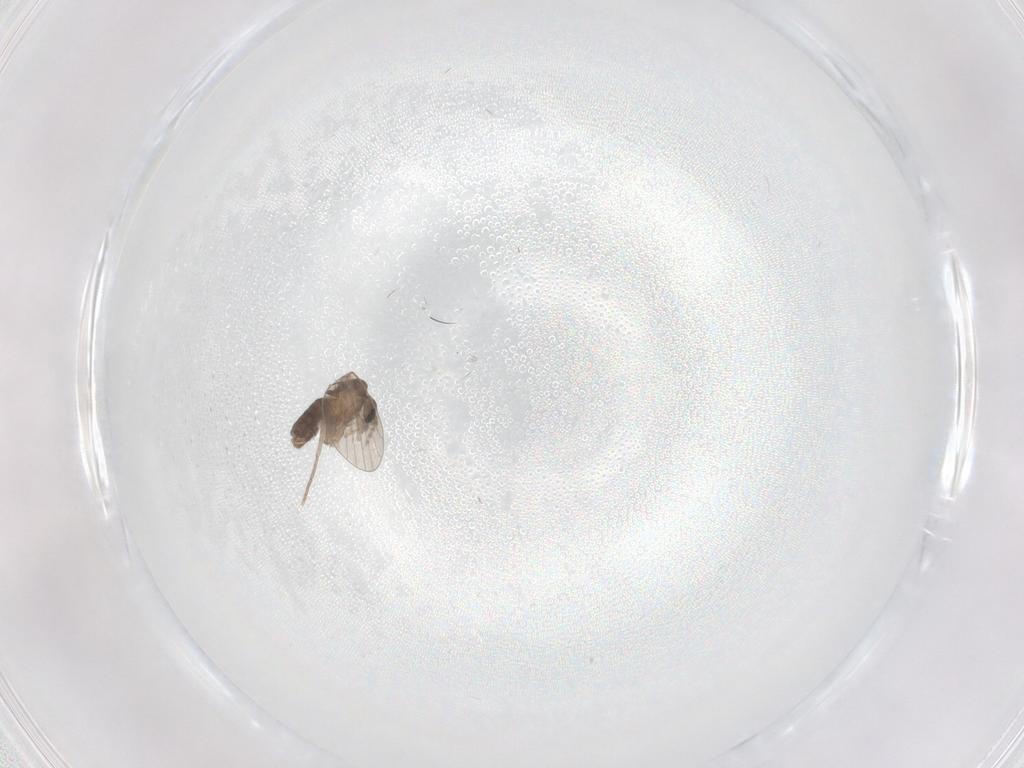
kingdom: Animalia
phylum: Arthropoda
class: Insecta
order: Diptera
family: Psychodidae
